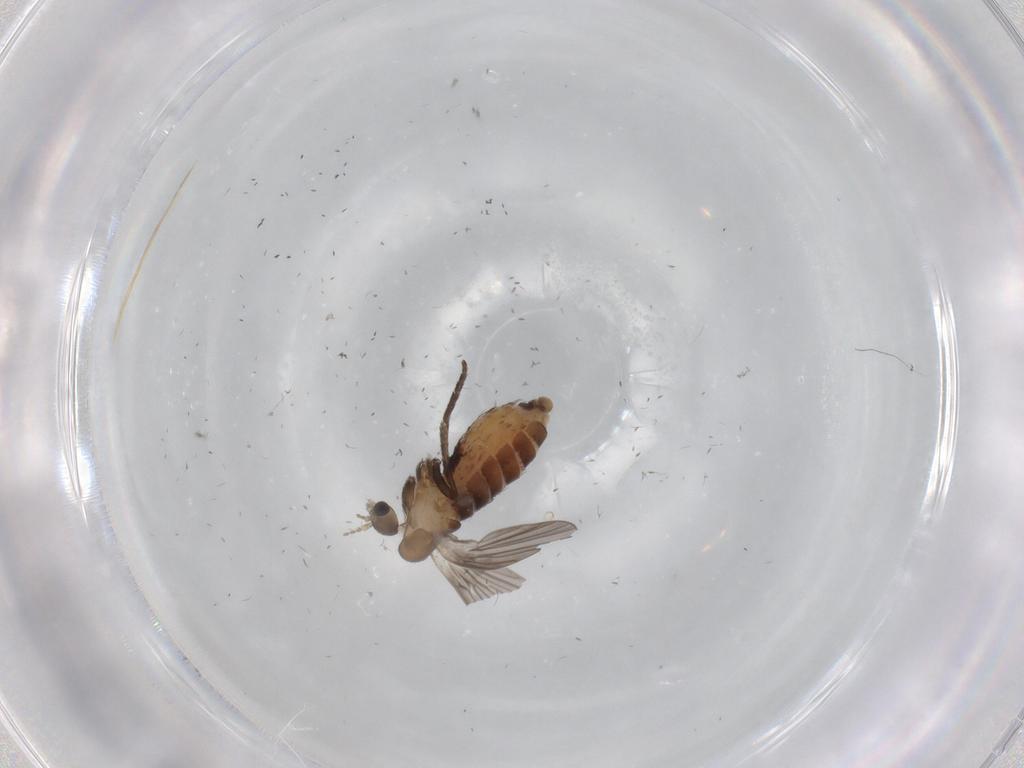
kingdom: Animalia
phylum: Arthropoda
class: Insecta
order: Diptera
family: Psychodidae
